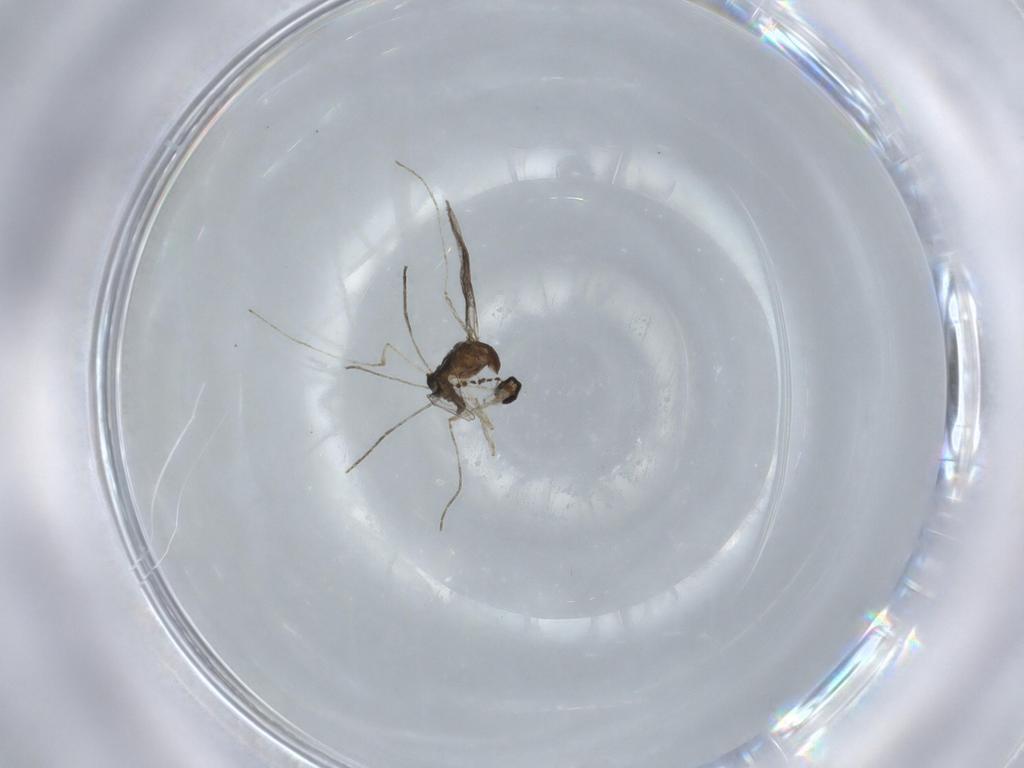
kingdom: Animalia
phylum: Arthropoda
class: Insecta
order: Diptera
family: Cecidomyiidae
